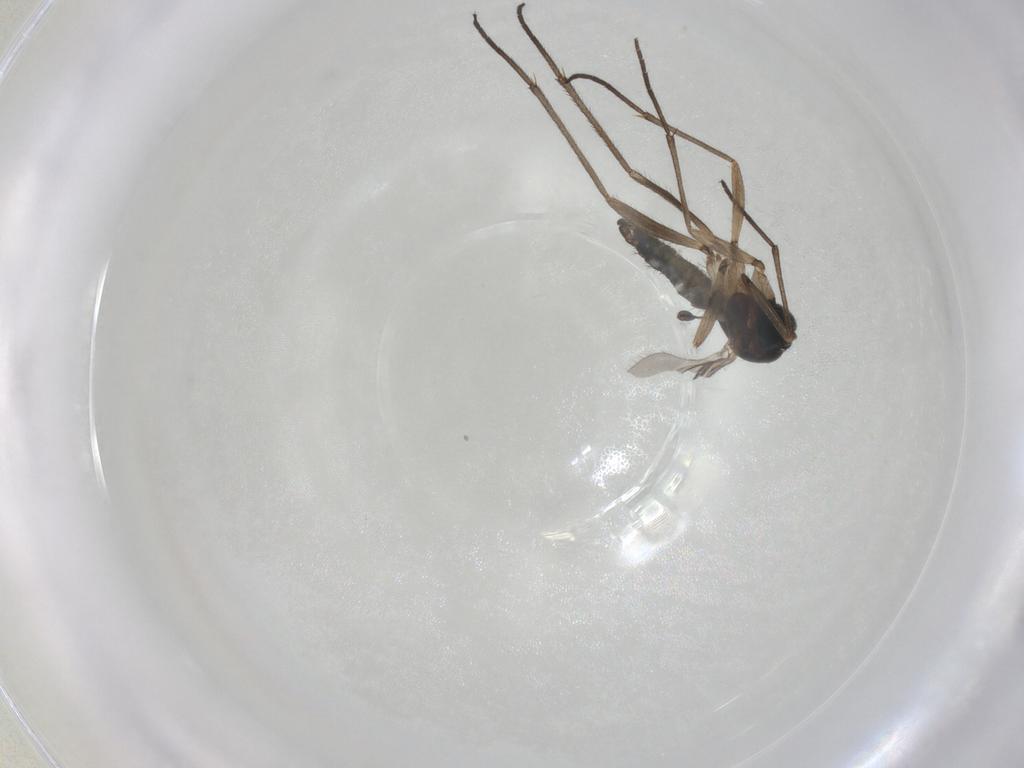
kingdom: Animalia
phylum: Arthropoda
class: Insecta
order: Diptera
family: Sciaridae
